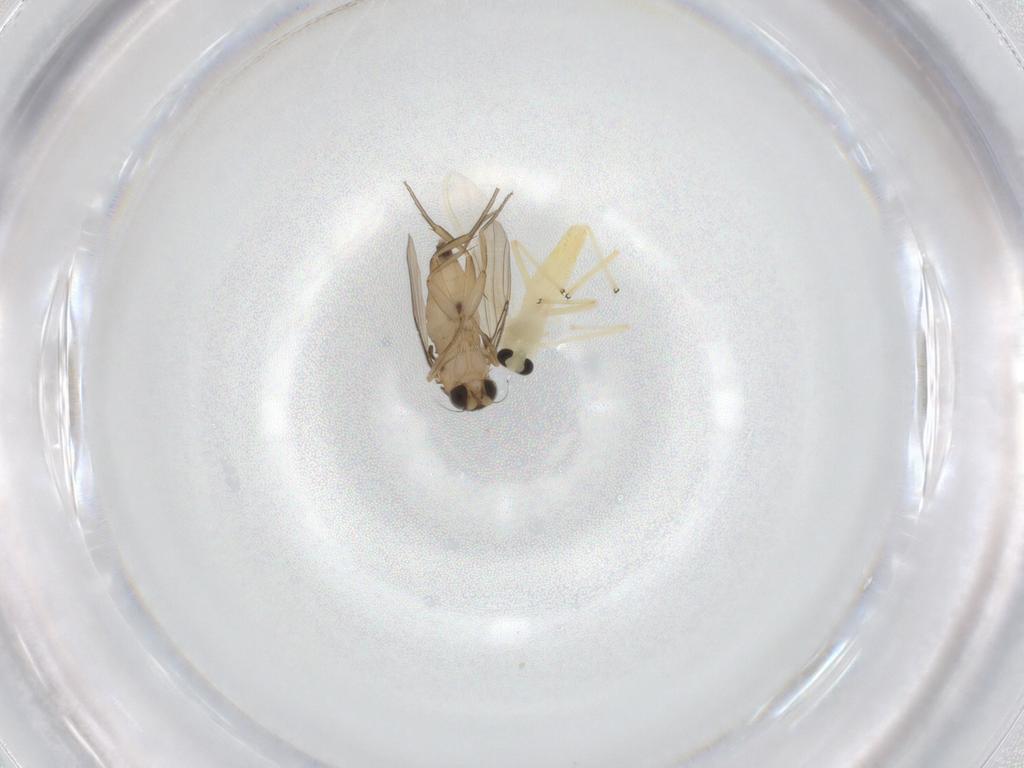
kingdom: Animalia
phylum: Arthropoda
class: Insecta
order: Diptera
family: Chironomidae
